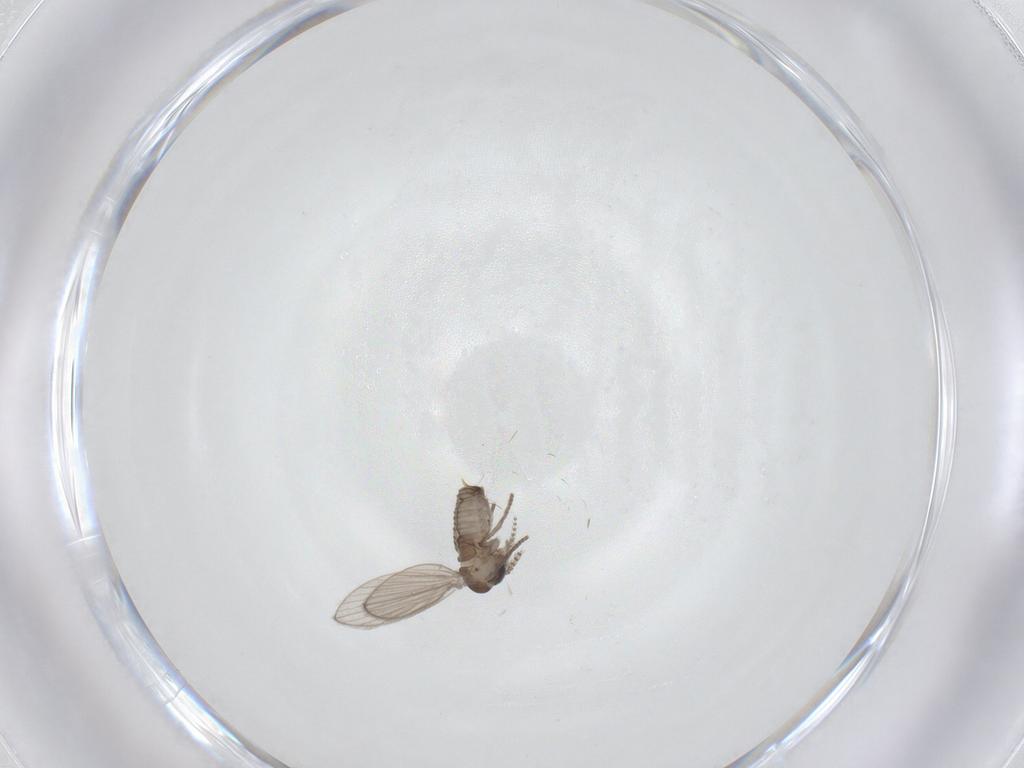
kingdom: Animalia
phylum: Arthropoda
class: Insecta
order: Diptera
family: Psychodidae
